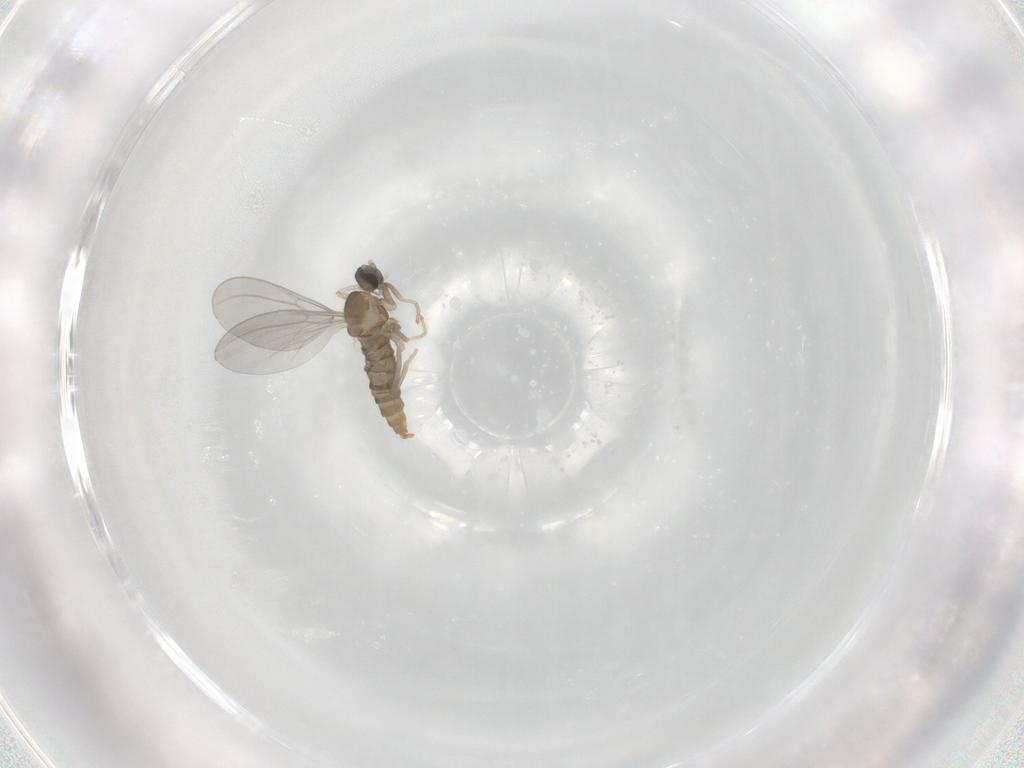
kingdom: Animalia
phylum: Arthropoda
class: Insecta
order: Diptera
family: Cecidomyiidae
